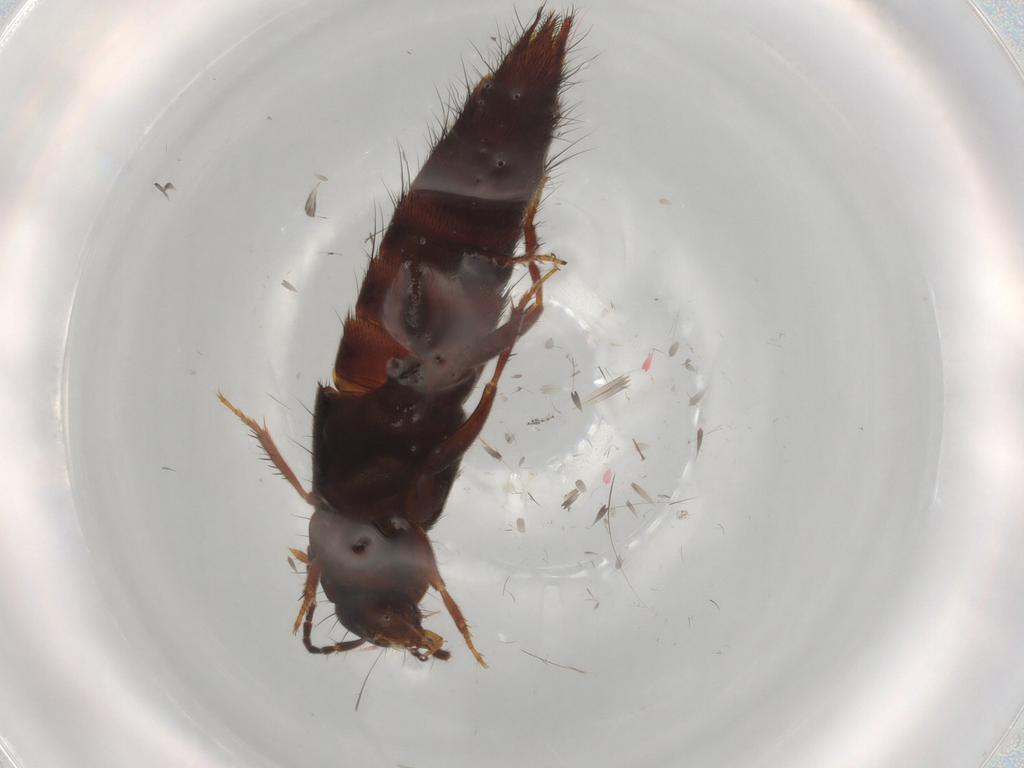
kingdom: Animalia
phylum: Arthropoda
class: Insecta
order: Coleoptera
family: Staphylinidae
